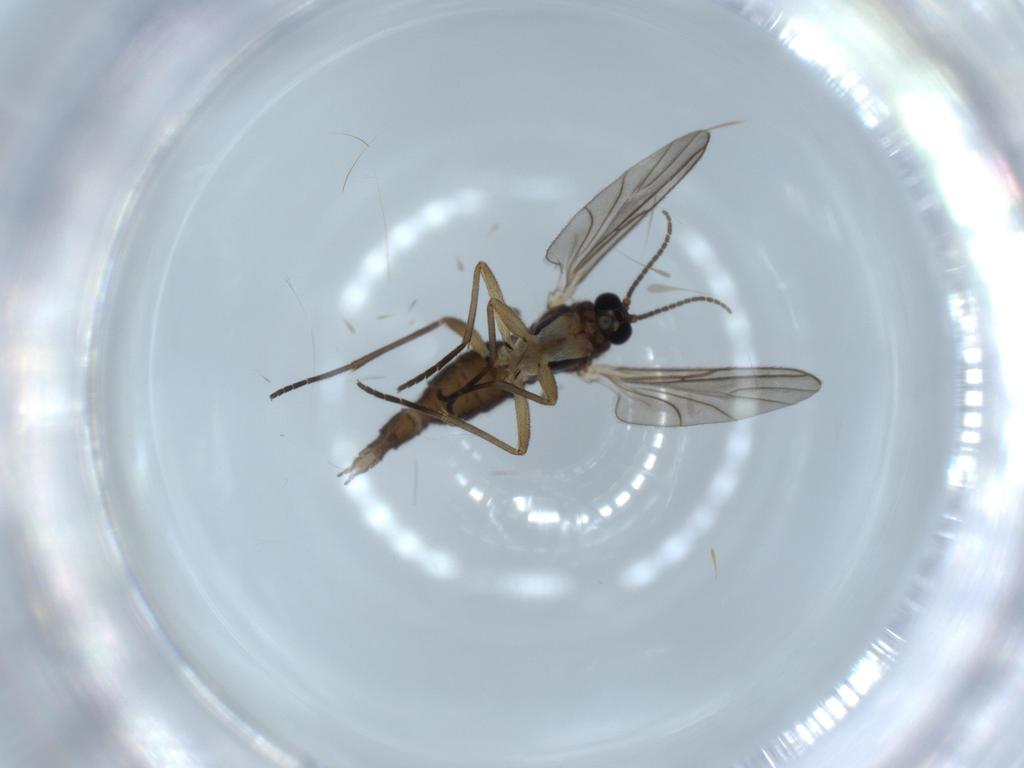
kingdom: Animalia
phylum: Arthropoda
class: Insecta
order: Diptera
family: Sciaridae
